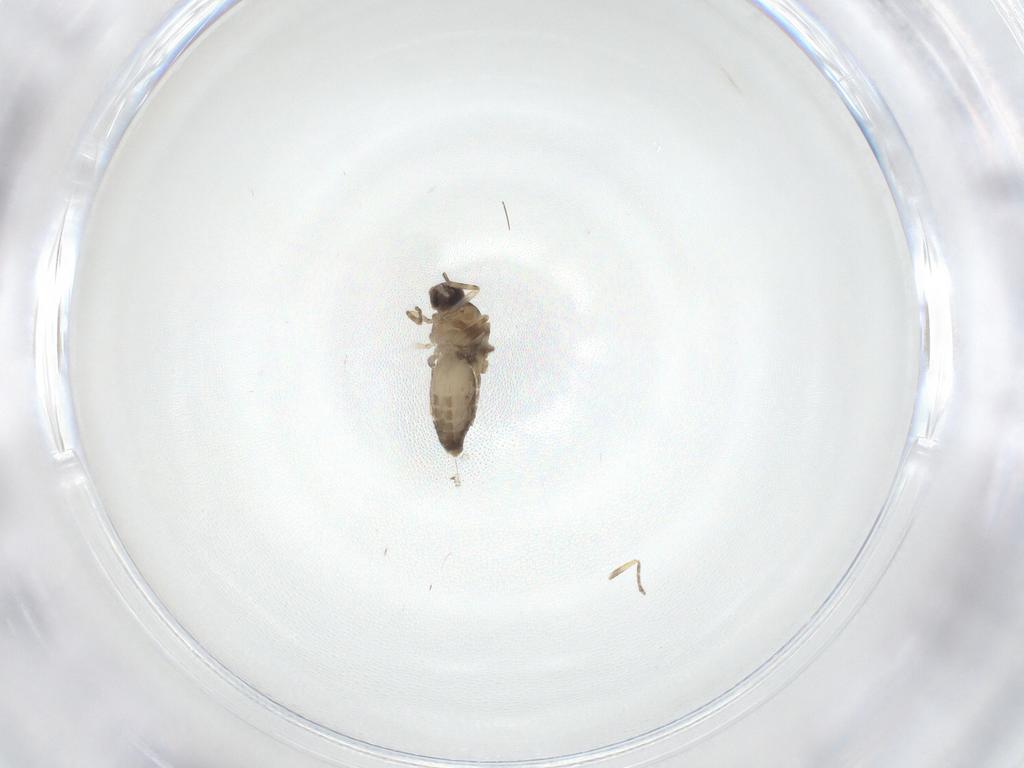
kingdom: Animalia
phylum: Arthropoda
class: Insecta
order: Diptera
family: Ceratopogonidae
